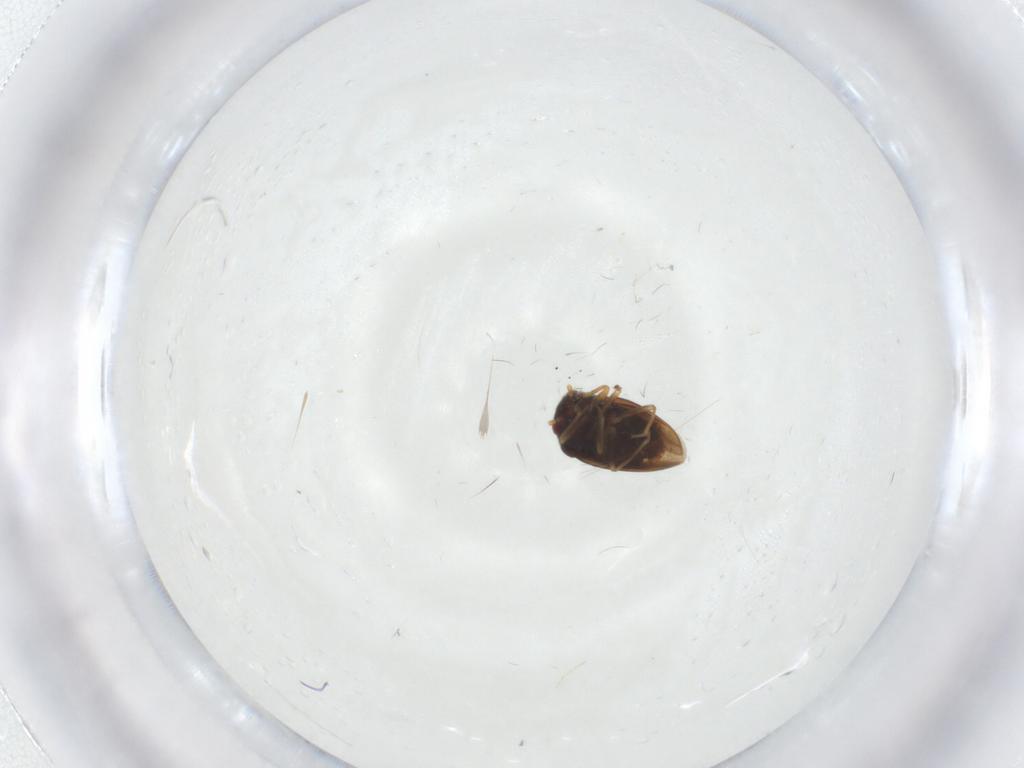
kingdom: Animalia
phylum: Arthropoda
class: Insecta
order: Hemiptera
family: Schizopteridae
